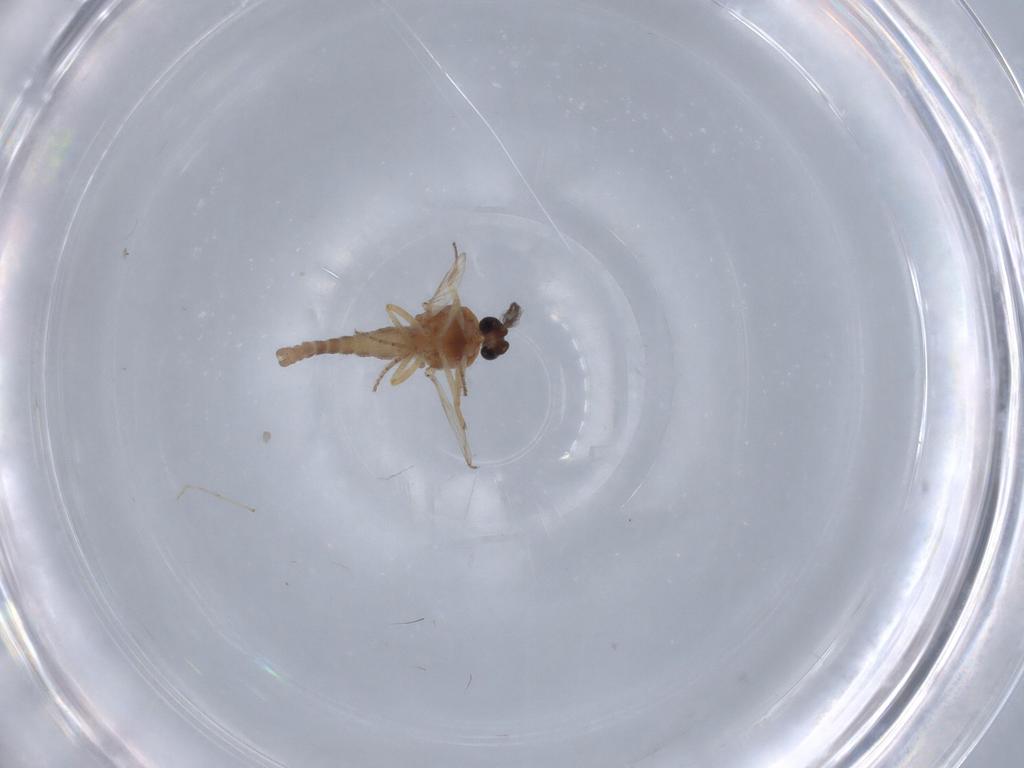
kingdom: Animalia
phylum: Arthropoda
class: Insecta
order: Diptera
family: Ceratopogonidae
